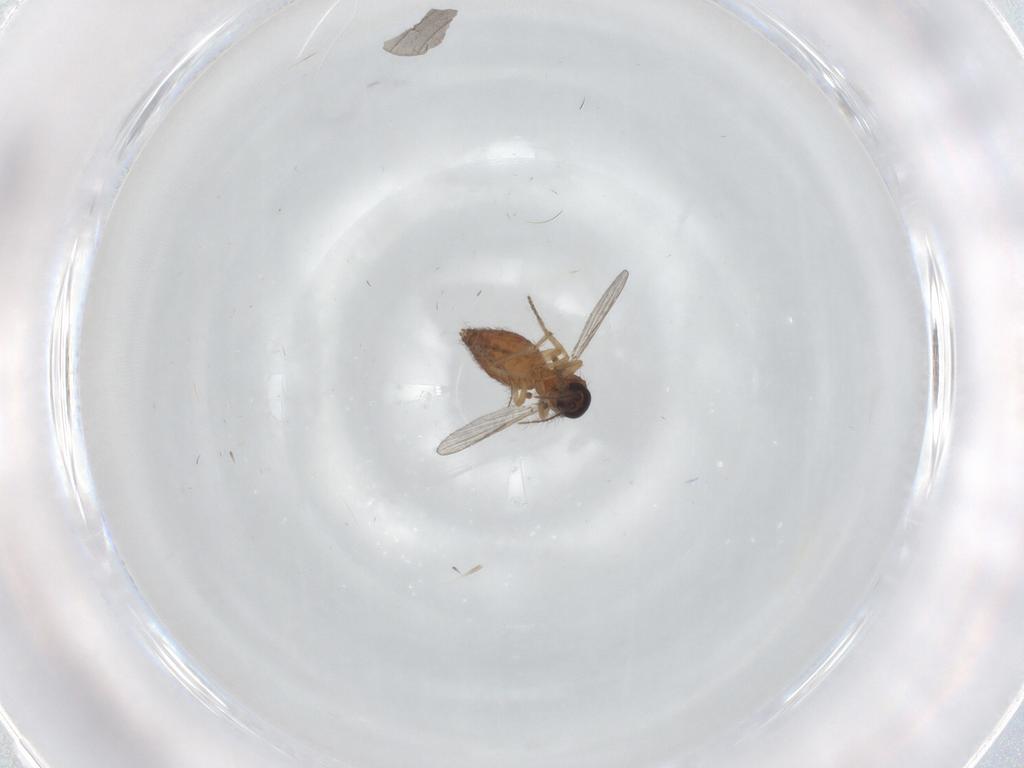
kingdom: Animalia
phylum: Arthropoda
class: Insecta
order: Diptera
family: Ceratopogonidae
